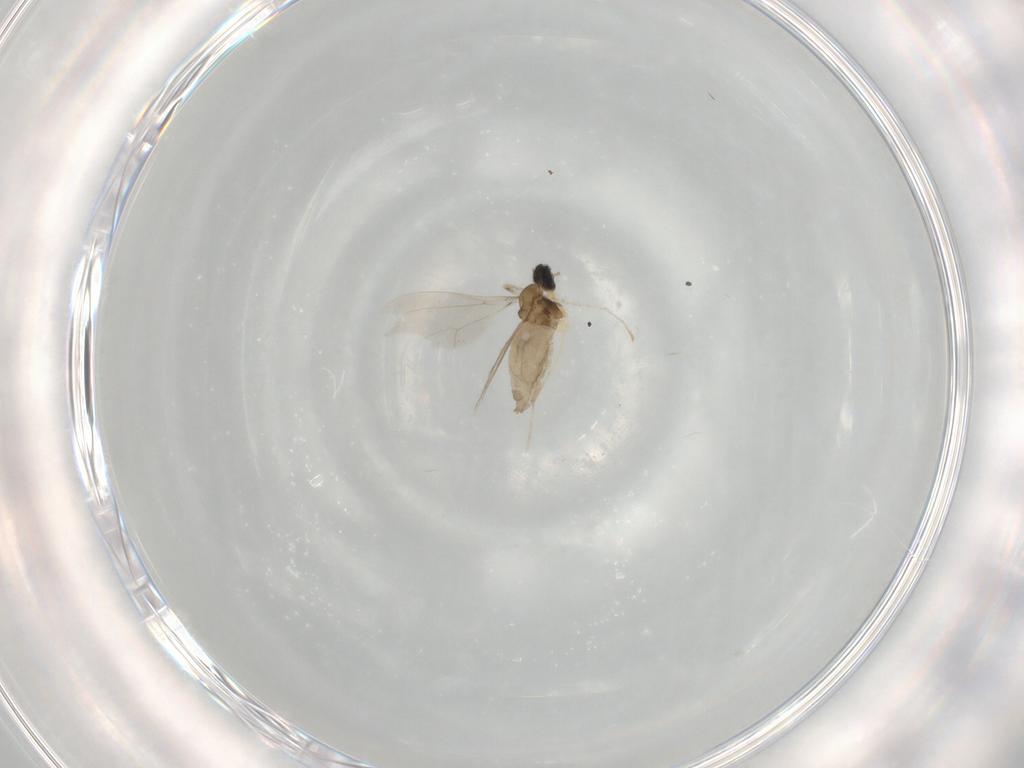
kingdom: Animalia
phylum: Arthropoda
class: Insecta
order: Diptera
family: Cecidomyiidae
